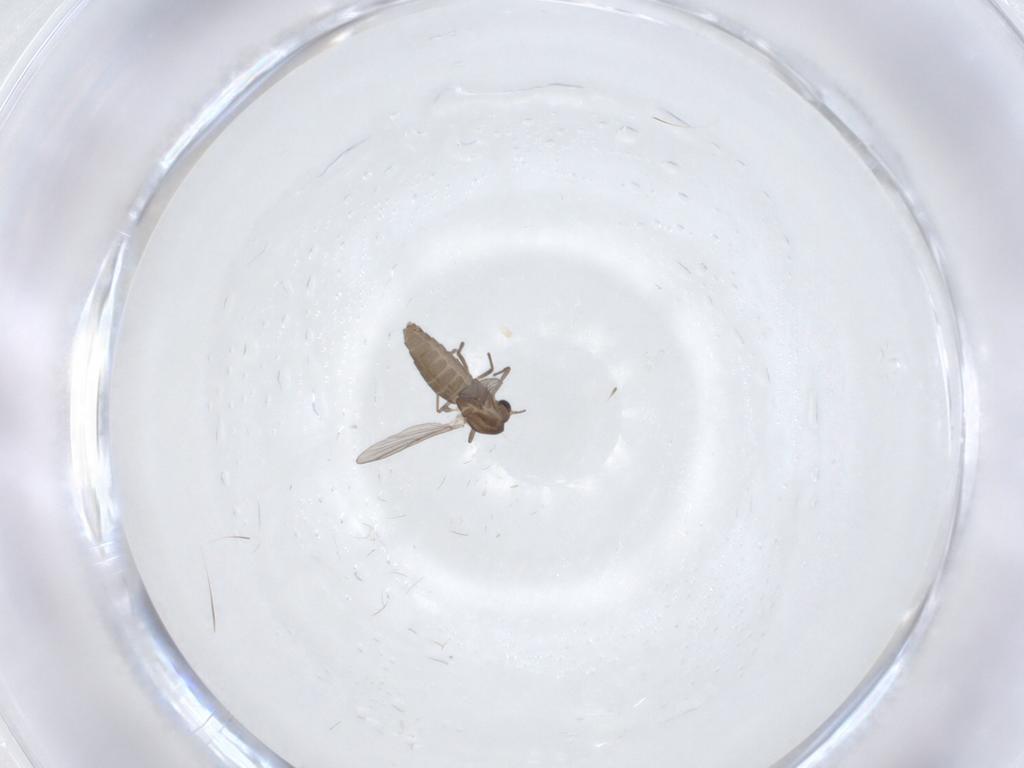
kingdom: Animalia
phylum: Arthropoda
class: Insecta
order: Diptera
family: Chironomidae
